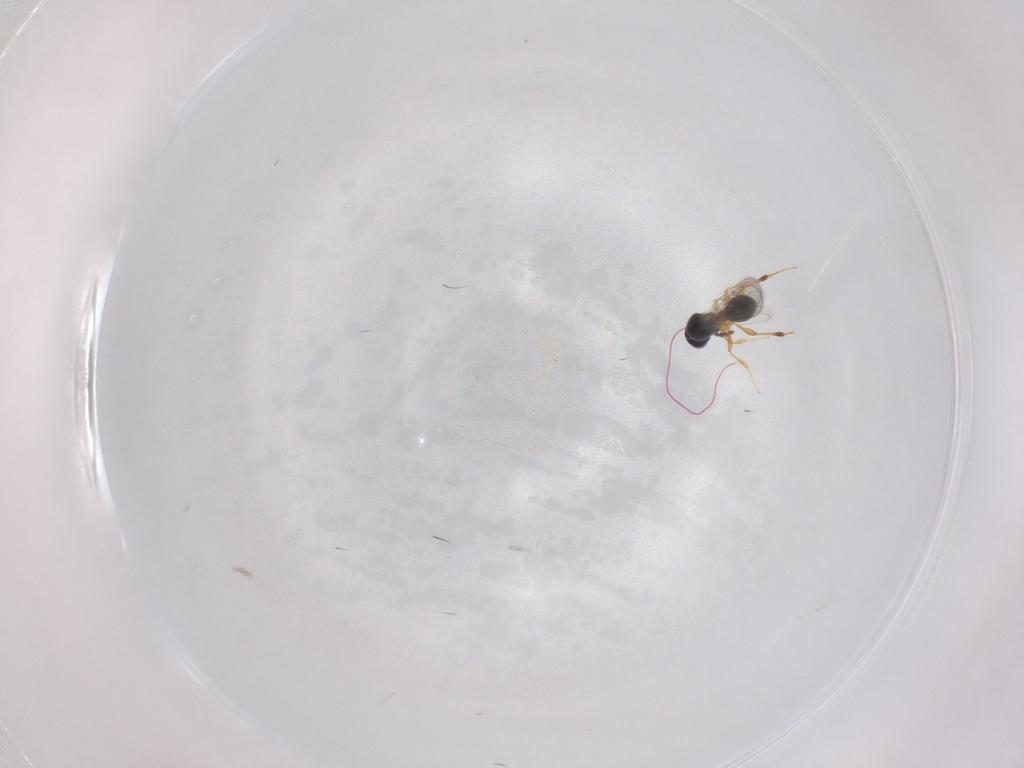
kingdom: Animalia
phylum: Arthropoda
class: Insecta
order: Hymenoptera
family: Platygastridae
